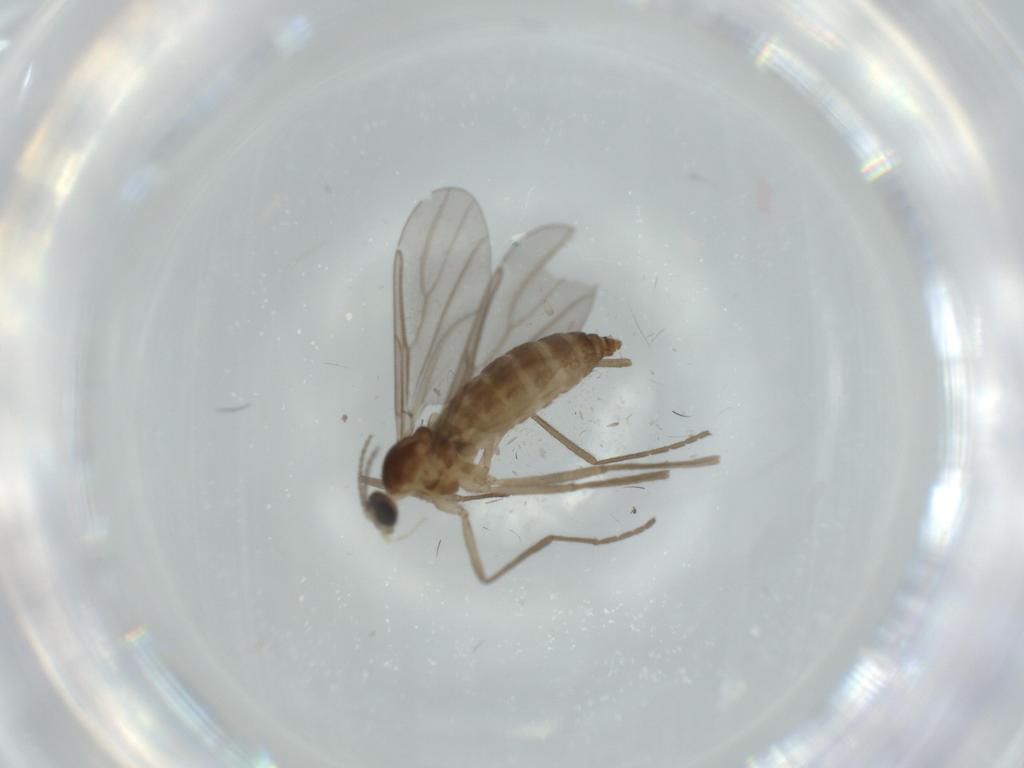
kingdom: Animalia
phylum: Arthropoda
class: Insecta
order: Diptera
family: Cecidomyiidae
